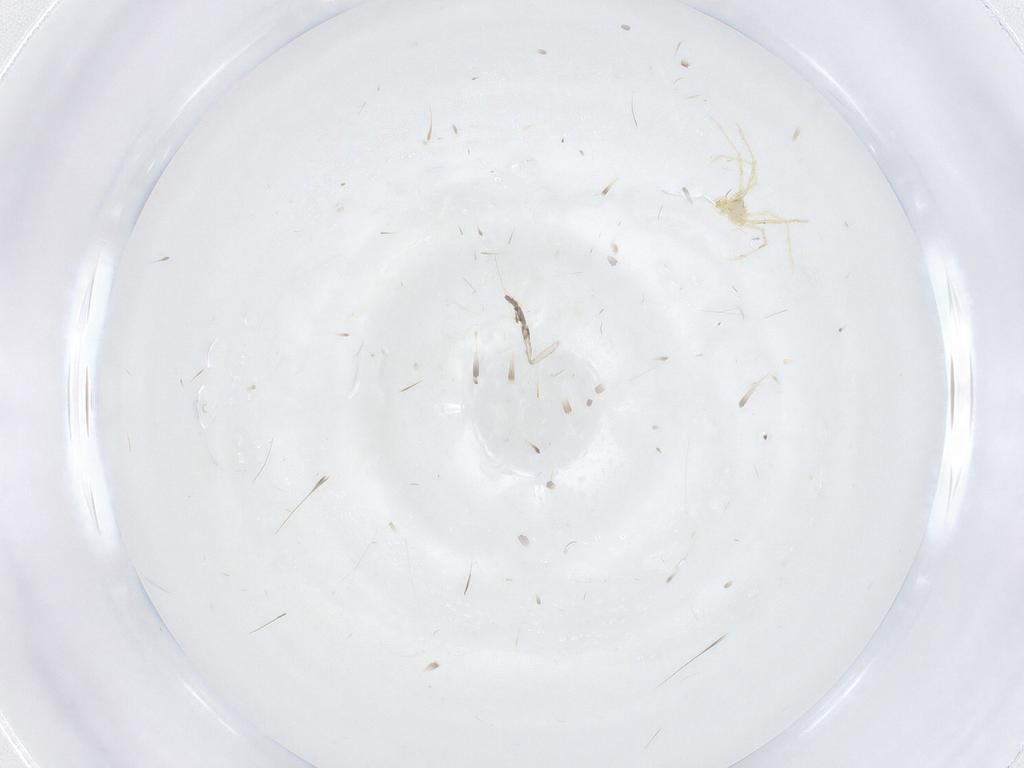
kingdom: Animalia
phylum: Arthropoda
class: Insecta
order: Diptera
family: Psychodidae
